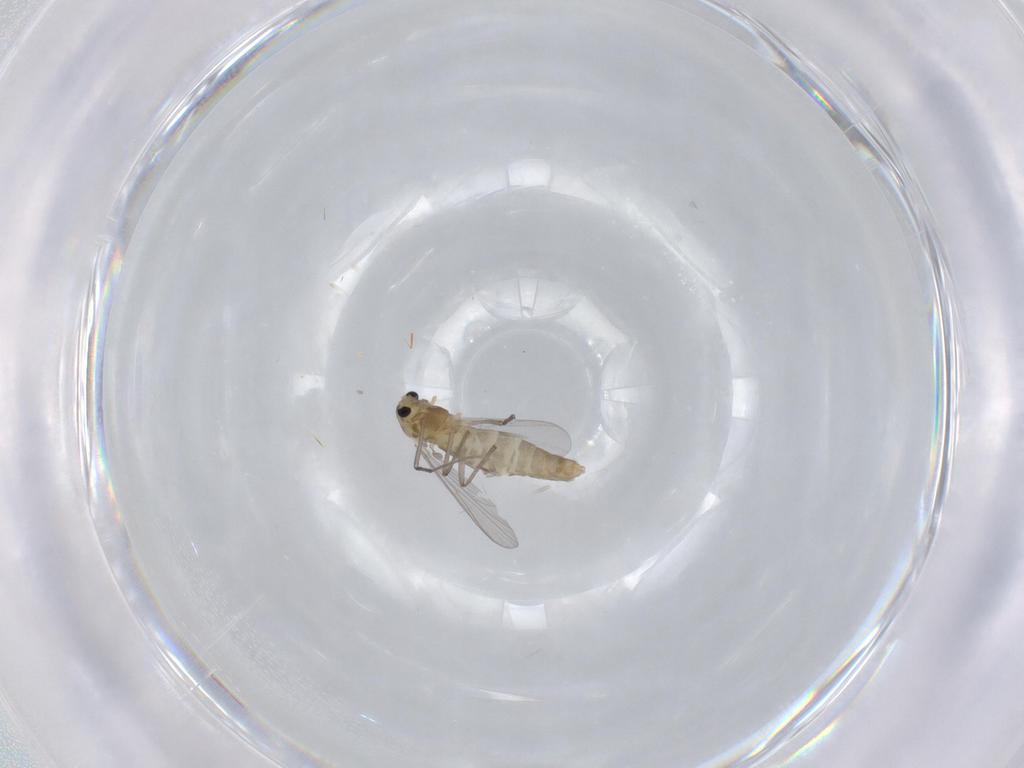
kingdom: Animalia
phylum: Arthropoda
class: Insecta
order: Diptera
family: Chironomidae
